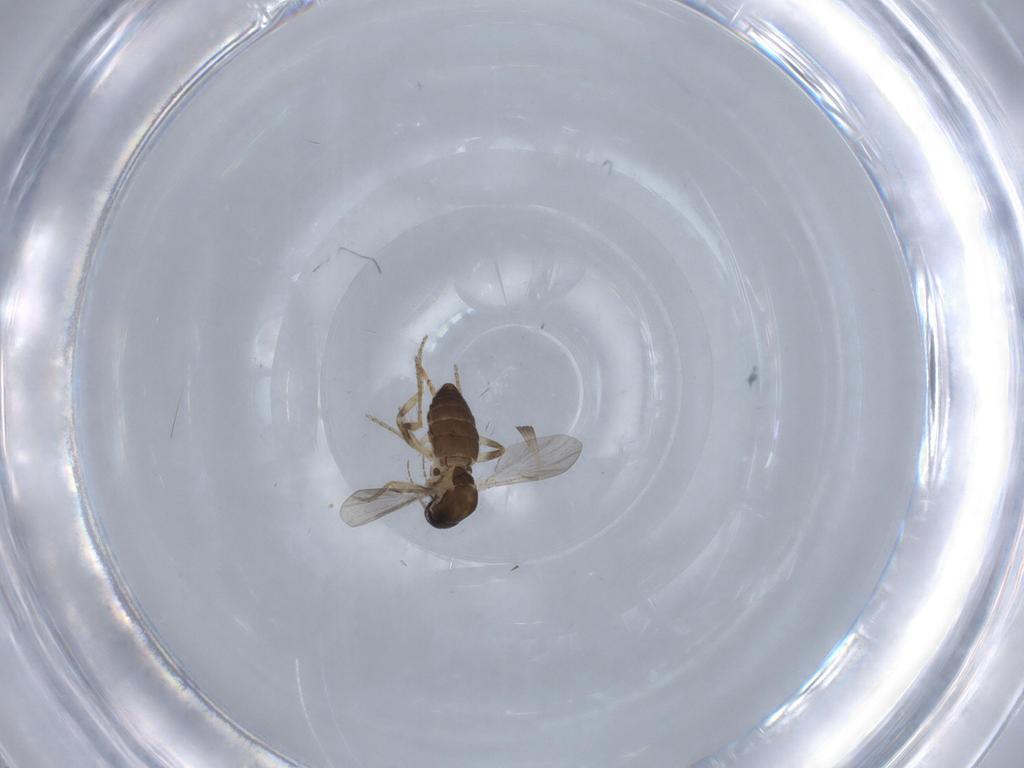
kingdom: Animalia
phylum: Arthropoda
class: Insecta
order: Diptera
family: Ceratopogonidae
